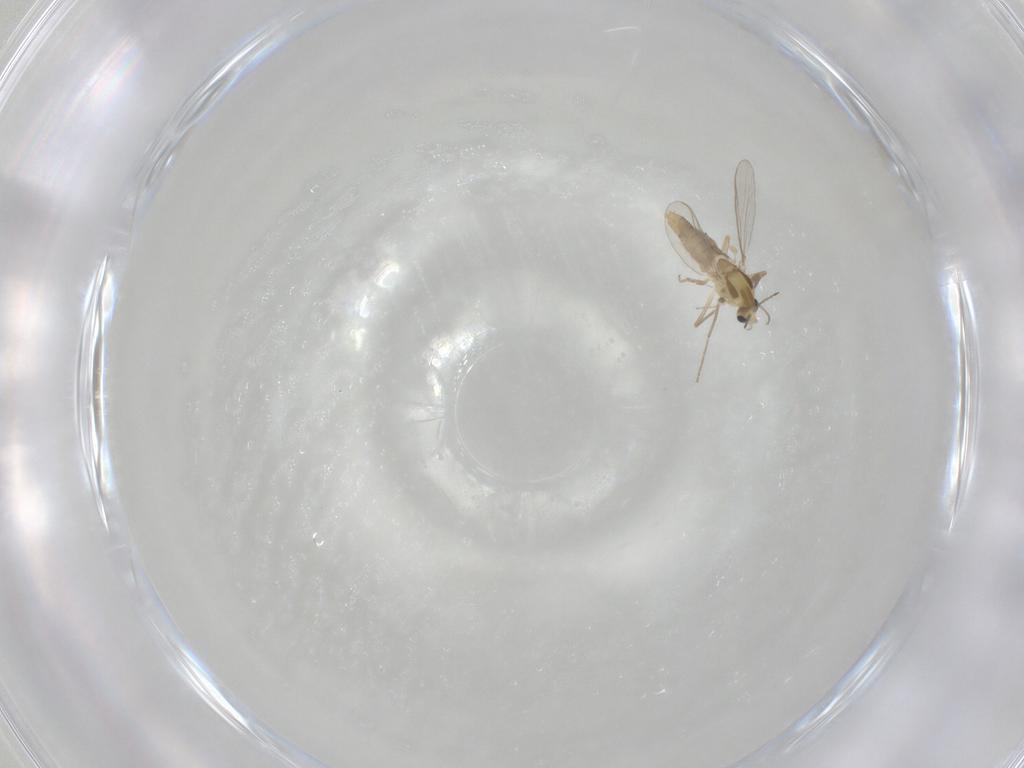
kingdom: Animalia
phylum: Arthropoda
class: Insecta
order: Diptera
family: Chironomidae
